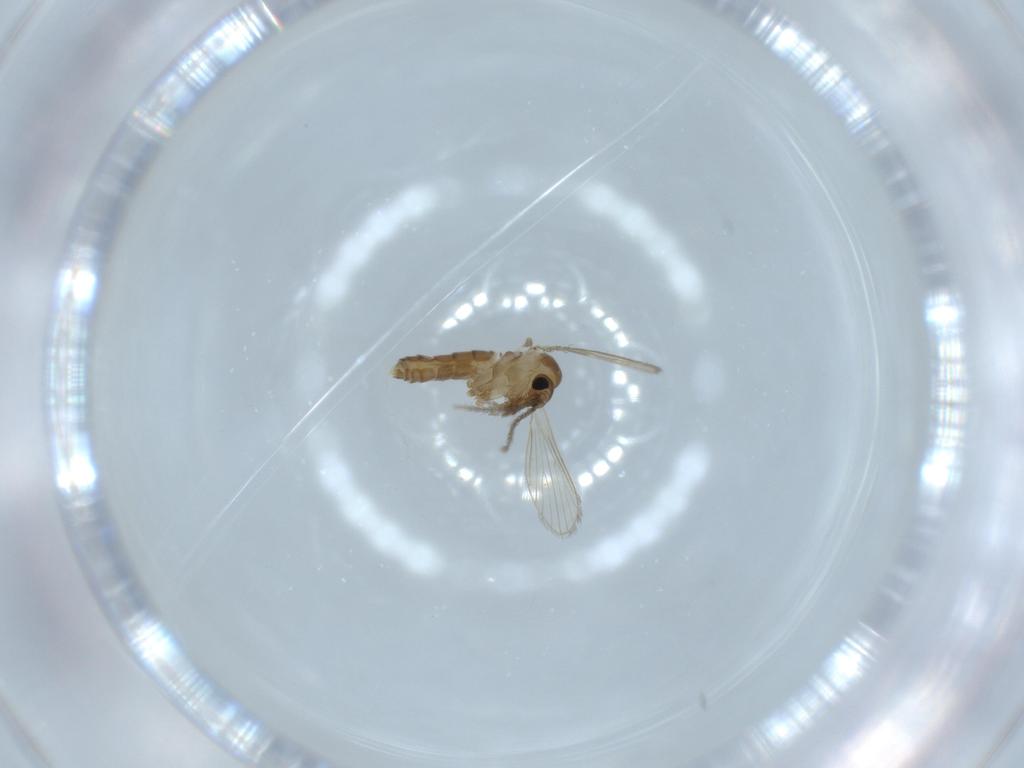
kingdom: Animalia
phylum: Arthropoda
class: Insecta
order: Diptera
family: Psychodidae
